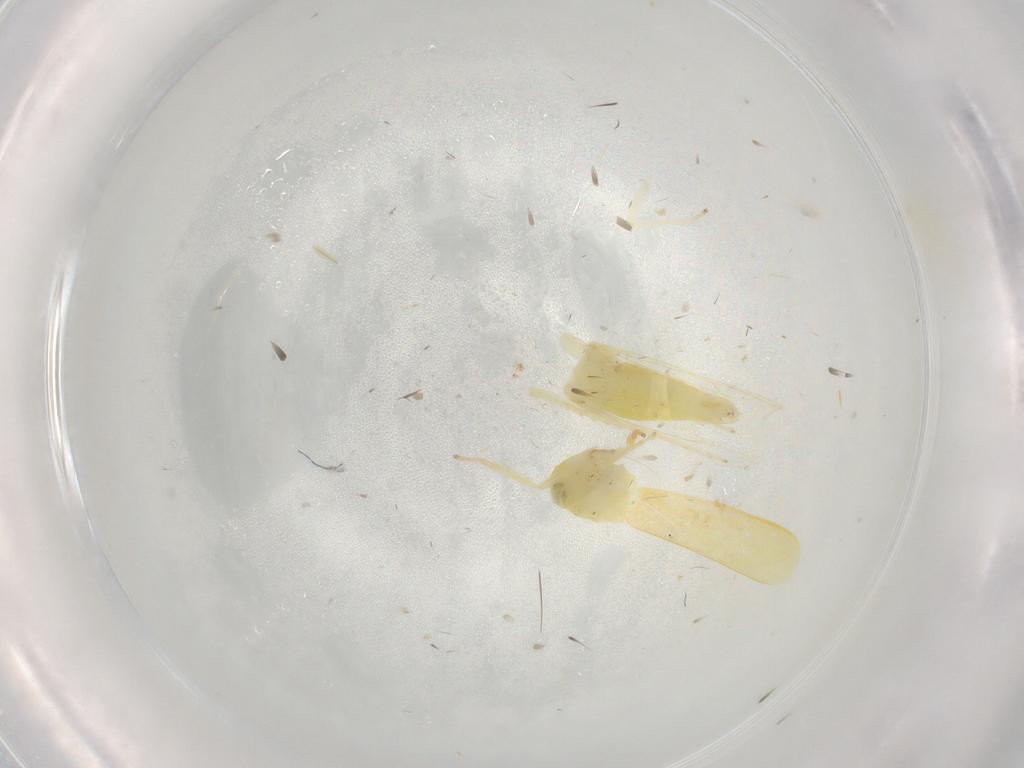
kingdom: Animalia
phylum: Arthropoda
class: Insecta
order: Hemiptera
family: Cicadellidae
